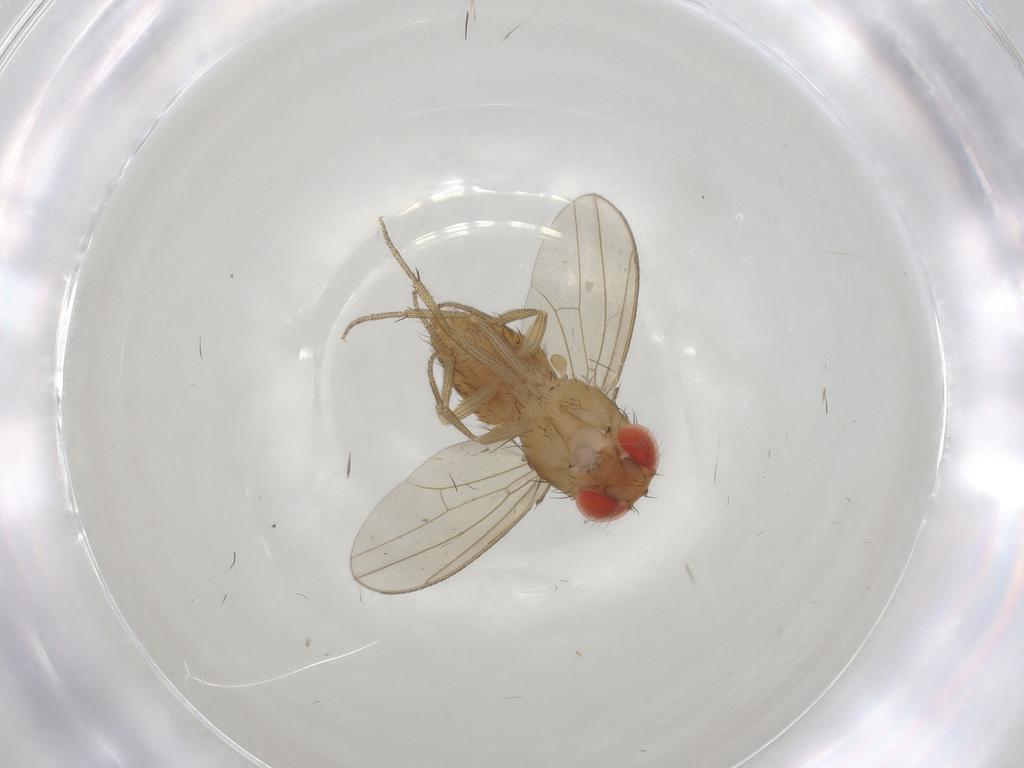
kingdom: Animalia
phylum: Arthropoda
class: Insecta
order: Diptera
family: Drosophilidae
